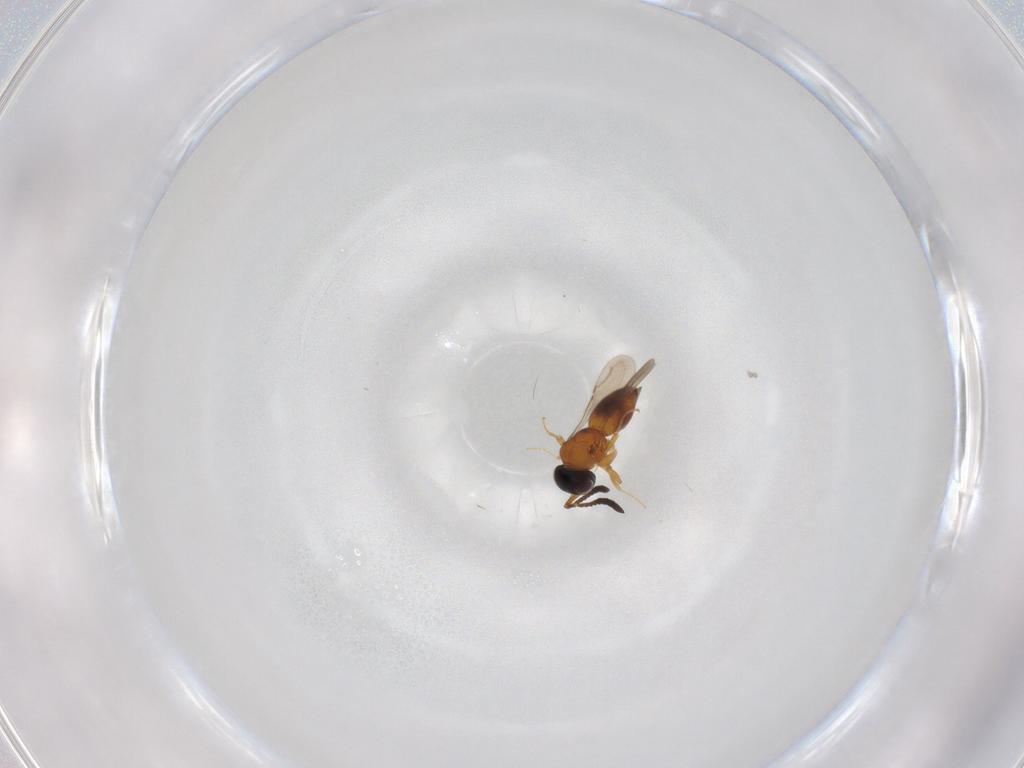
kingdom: Animalia
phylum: Arthropoda
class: Insecta
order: Hymenoptera
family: Ceraphronidae
